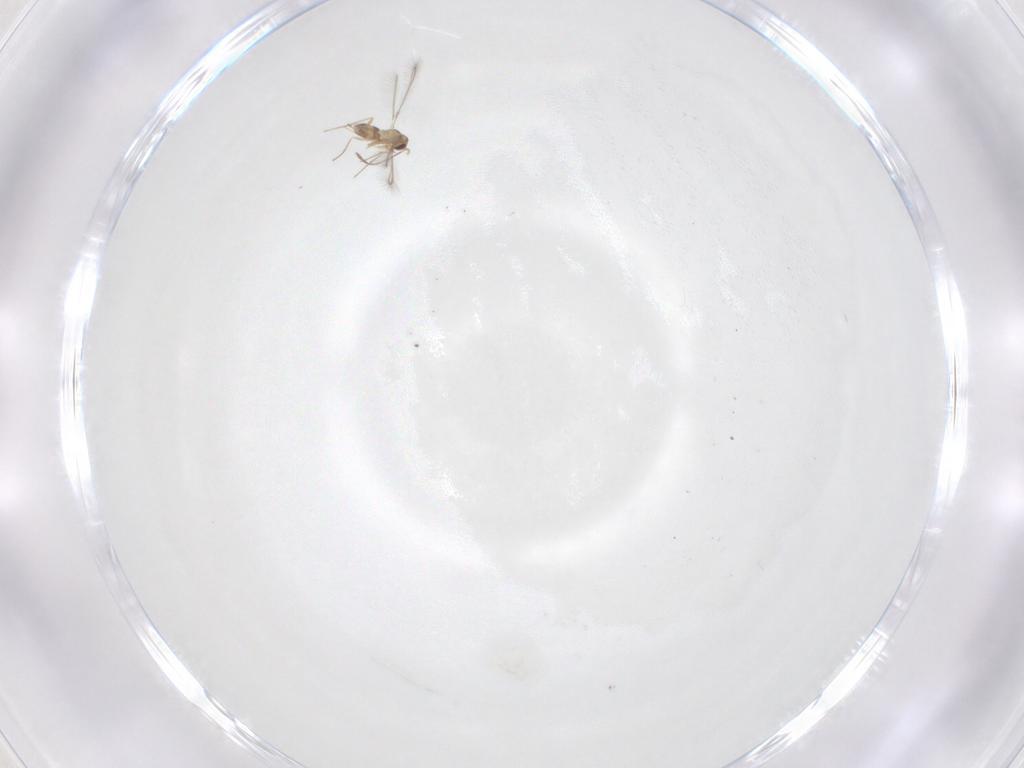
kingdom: Animalia
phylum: Arthropoda
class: Insecta
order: Hymenoptera
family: Mymaridae
